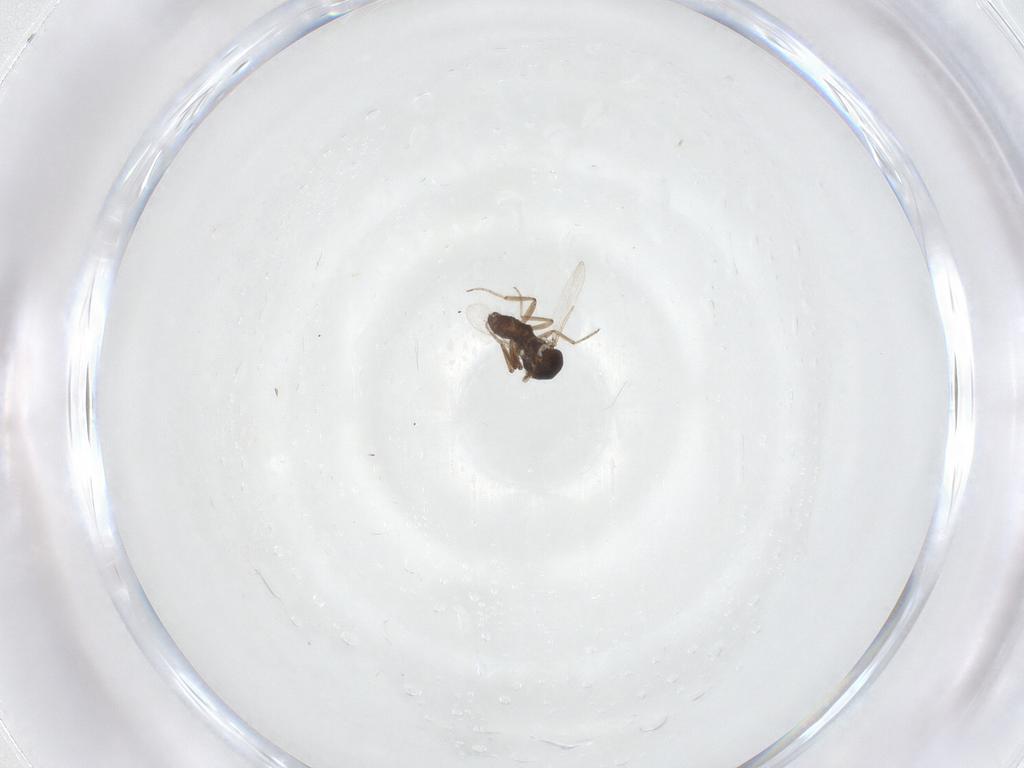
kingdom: Animalia
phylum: Arthropoda
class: Insecta
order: Diptera
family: Ceratopogonidae
